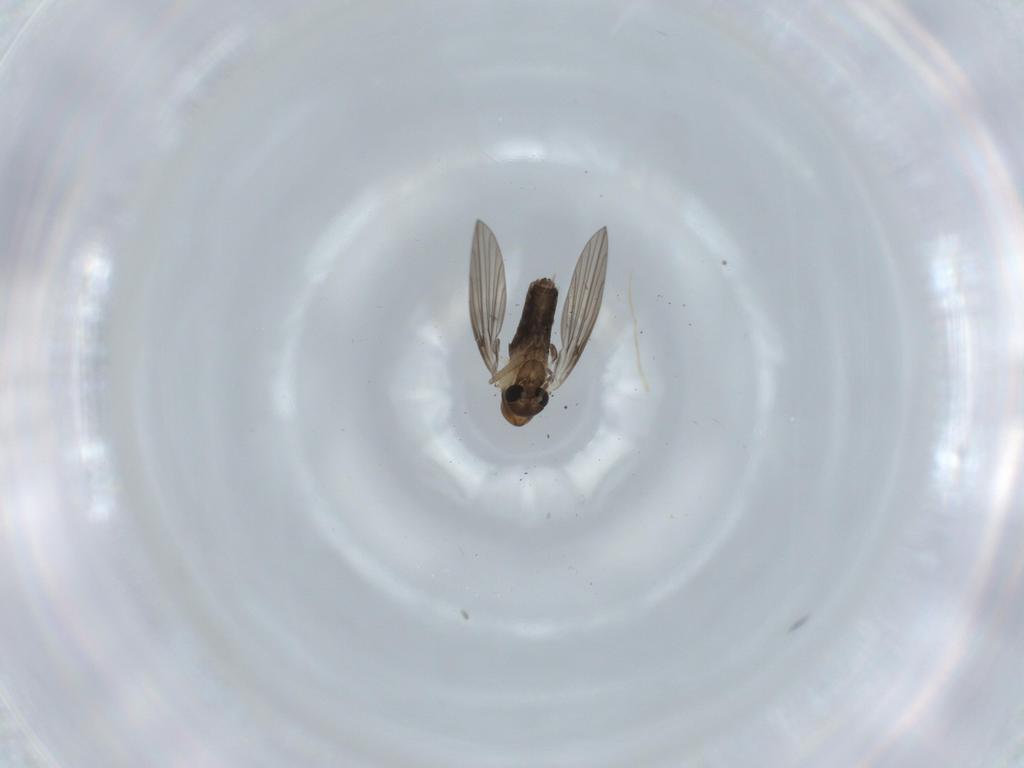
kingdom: Animalia
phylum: Arthropoda
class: Insecta
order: Diptera
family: Psychodidae
